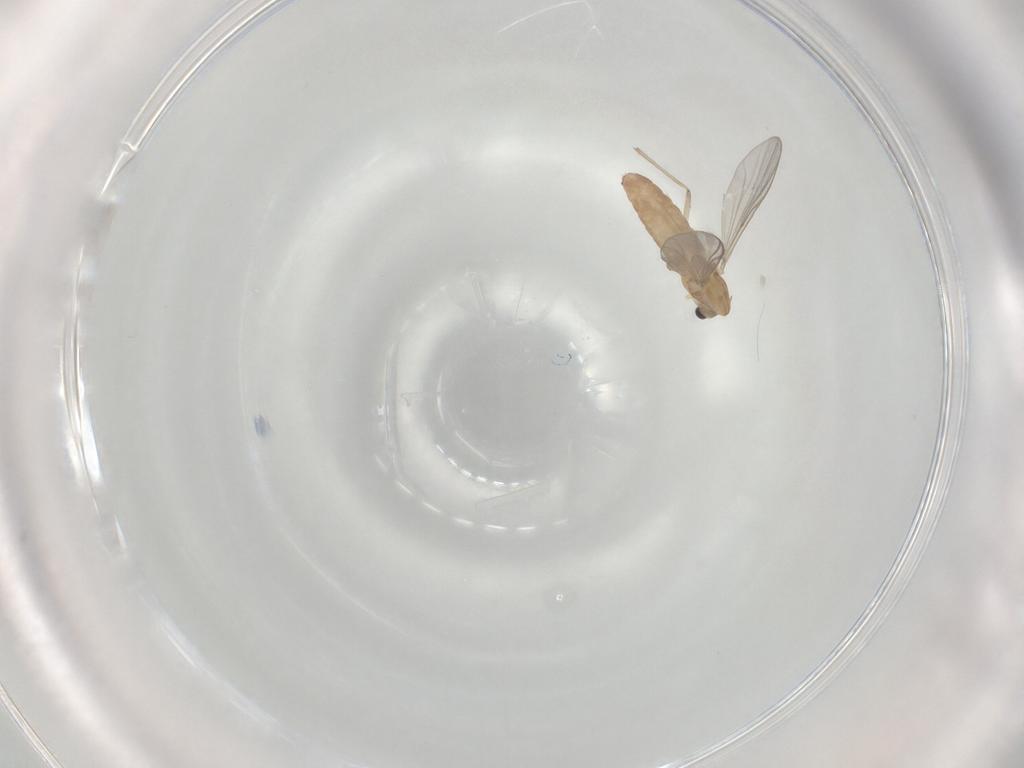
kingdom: Animalia
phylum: Arthropoda
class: Insecta
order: Diptera
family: Chironomidae
